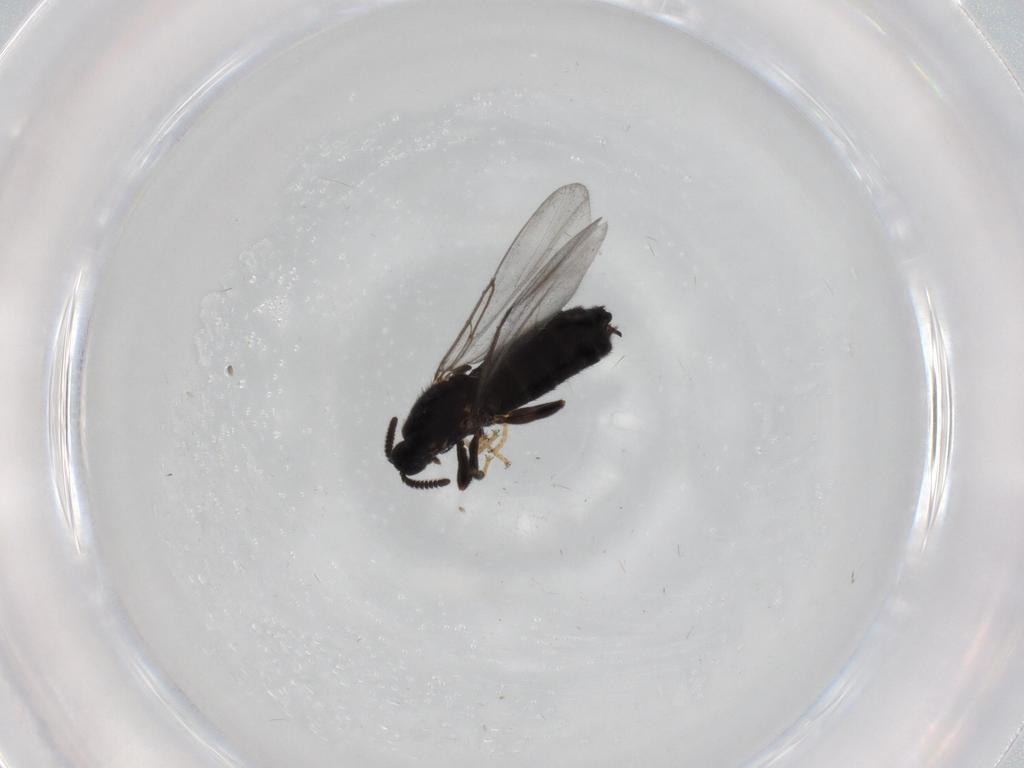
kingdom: Animalia
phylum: Arthropoda
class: Insecta
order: Diptera
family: Scatopsidae
